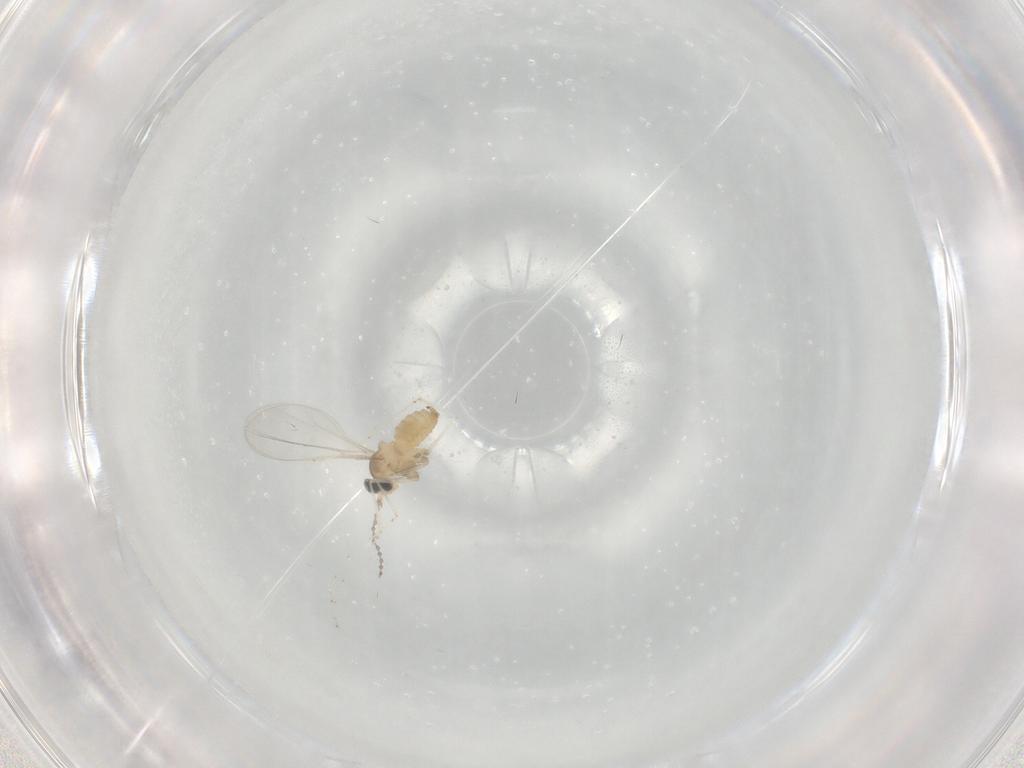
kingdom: Animalia
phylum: Arthropoda
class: Insecta
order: Diptera
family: Cecidomyiidae
